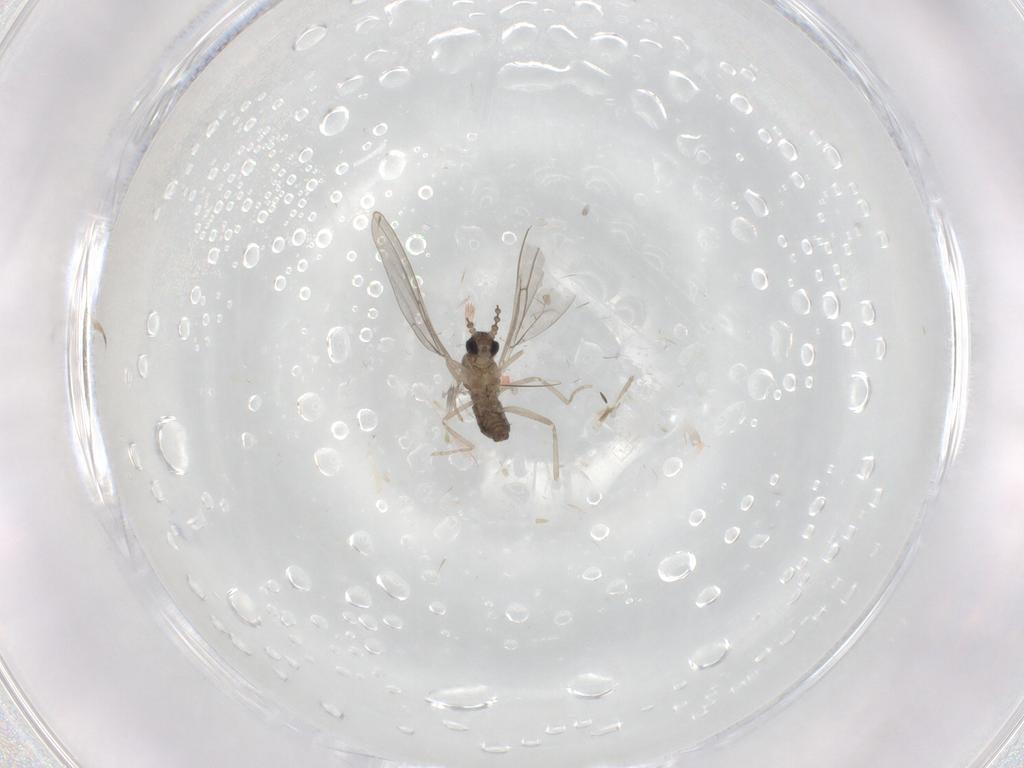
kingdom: Animalia
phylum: Arthropoda
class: Insecta
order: Diptera
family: Cecidomyiidae
